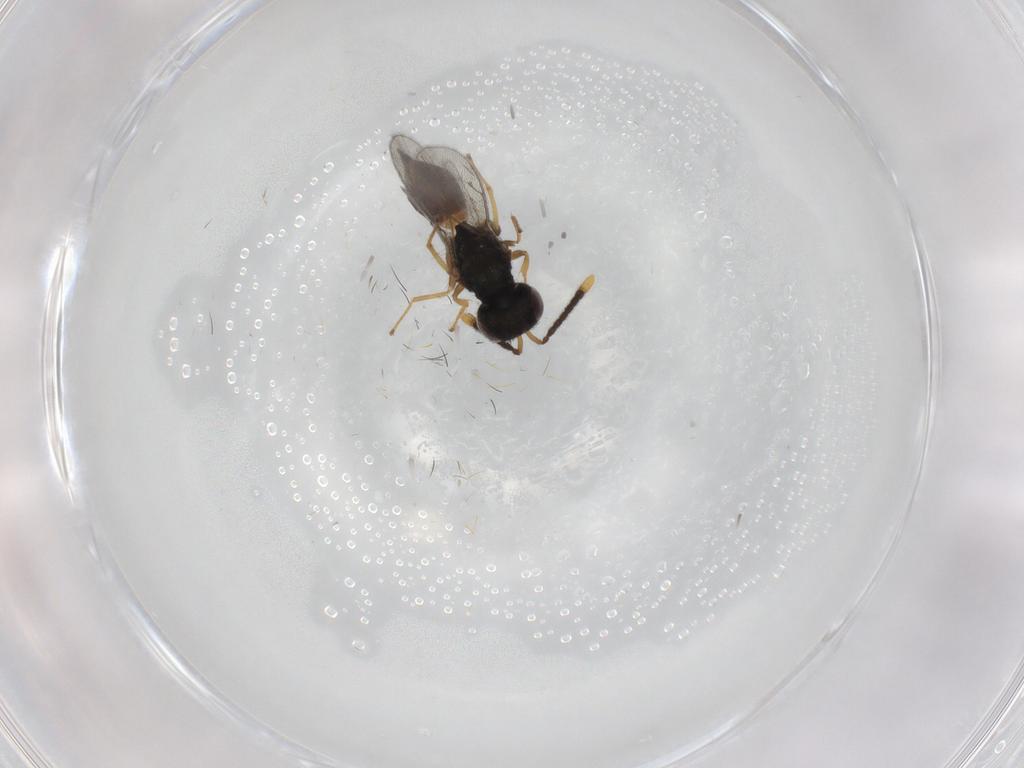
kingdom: Animalia
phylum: Arthropoda
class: Insecta
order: Hymenoptera
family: Pteromalidae
